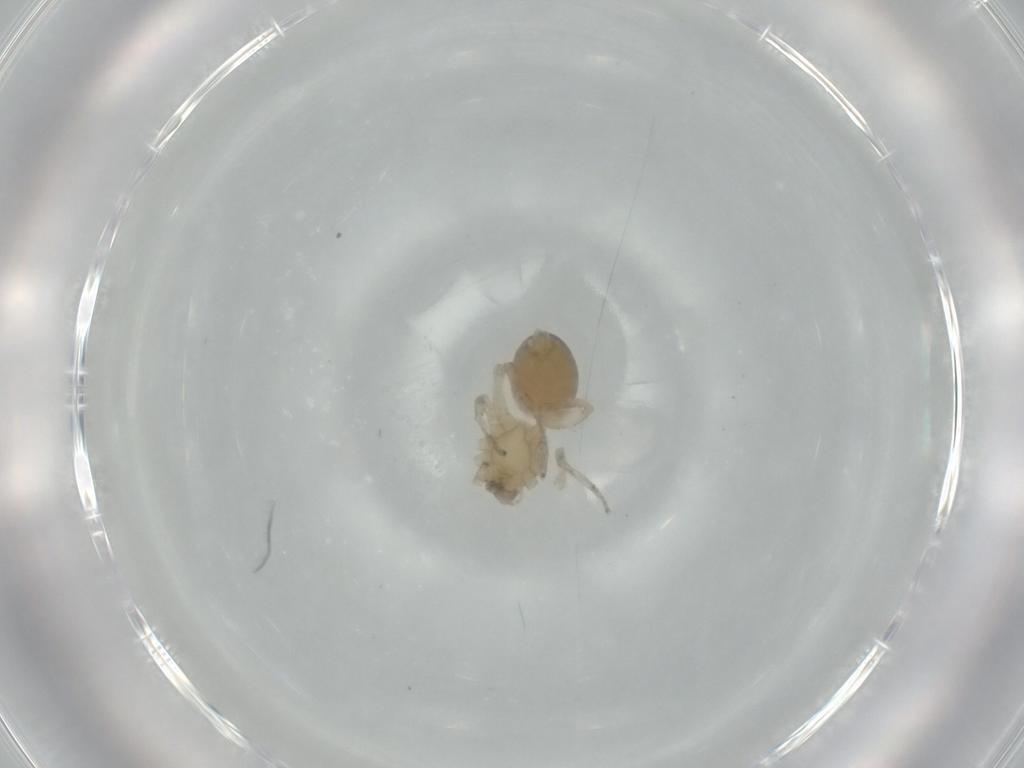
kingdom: Animalia
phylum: Arthropoda
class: Arachnida
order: Araneae
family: Amaurobiidae
